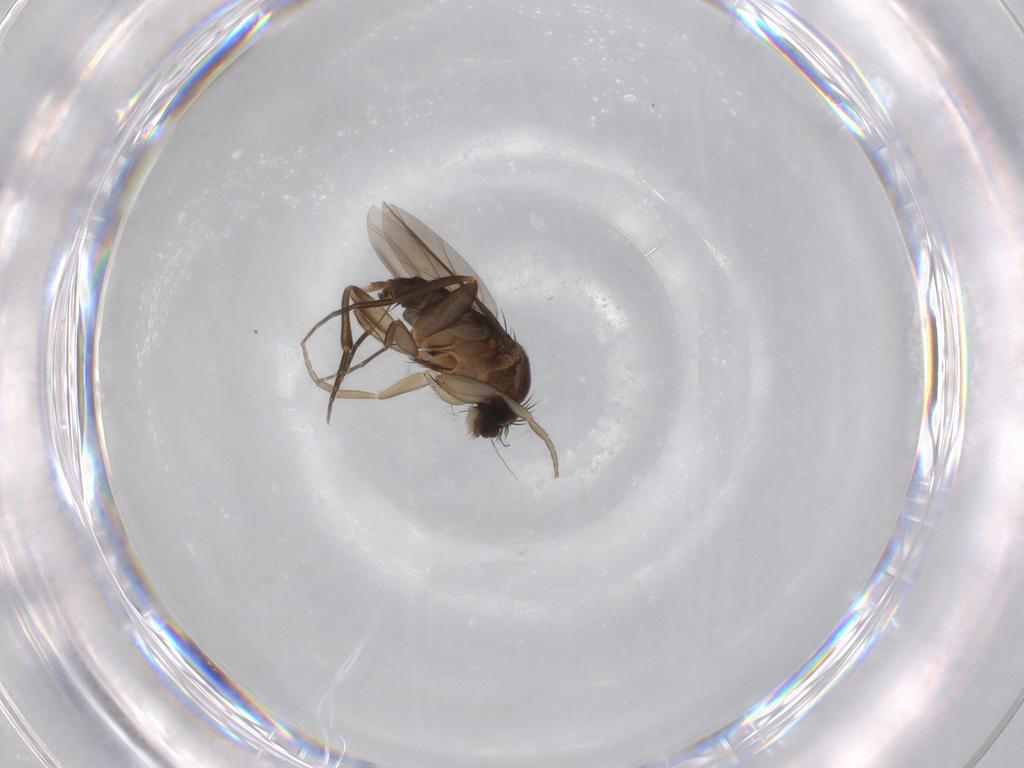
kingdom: Animalia
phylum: Arthropoda
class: Insecta
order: Diptera
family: Phoridae
